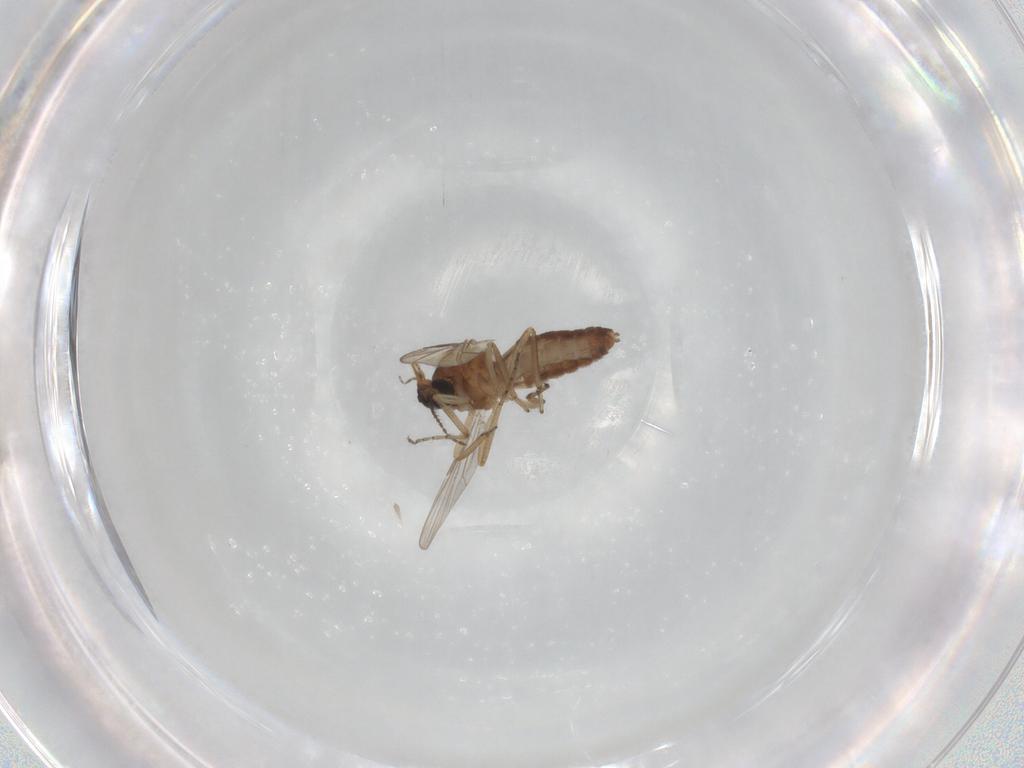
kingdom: Animalia
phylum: Arthropoda
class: Insecta
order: Diptera
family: Ceratopogonidae
